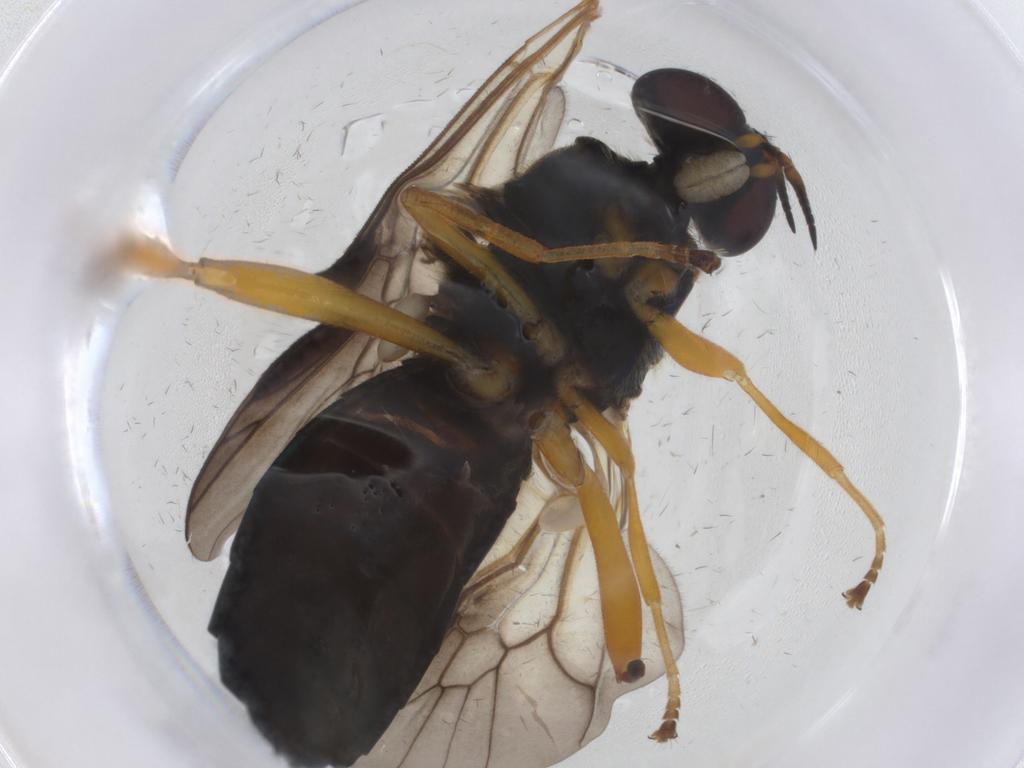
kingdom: Animalia
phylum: Arthropoda
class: Insecta
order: Diptera
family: Stratiomyidae
